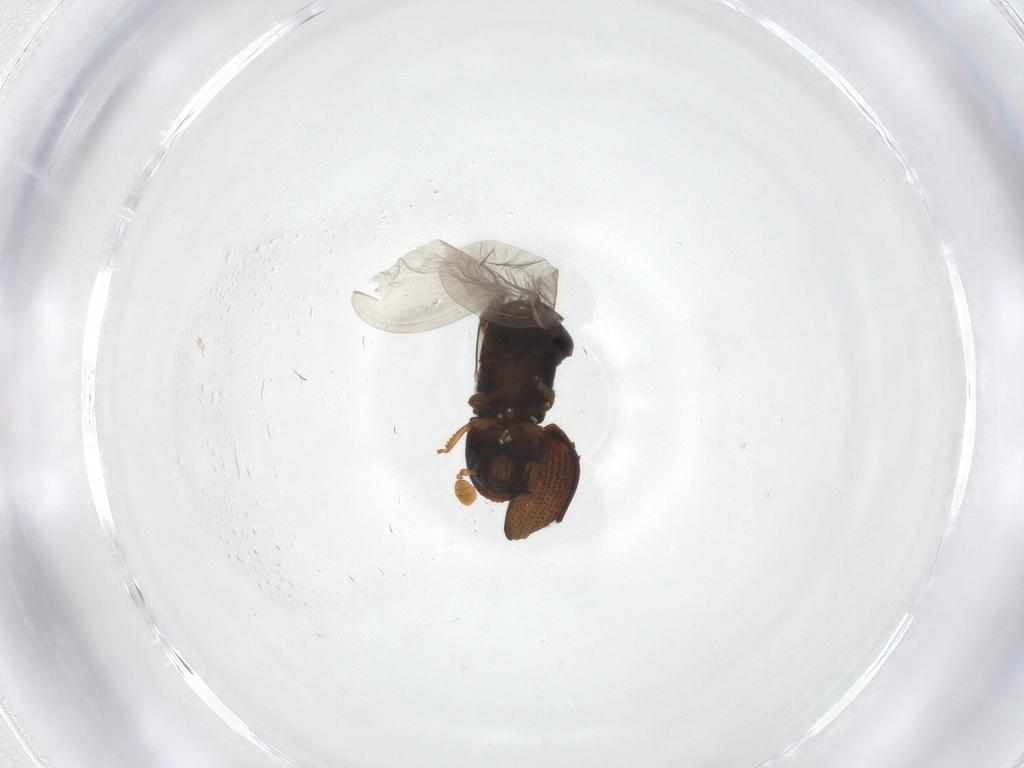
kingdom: Animalia
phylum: Arthropoda
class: Insecta
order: Coleoptera
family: Curculionidae
